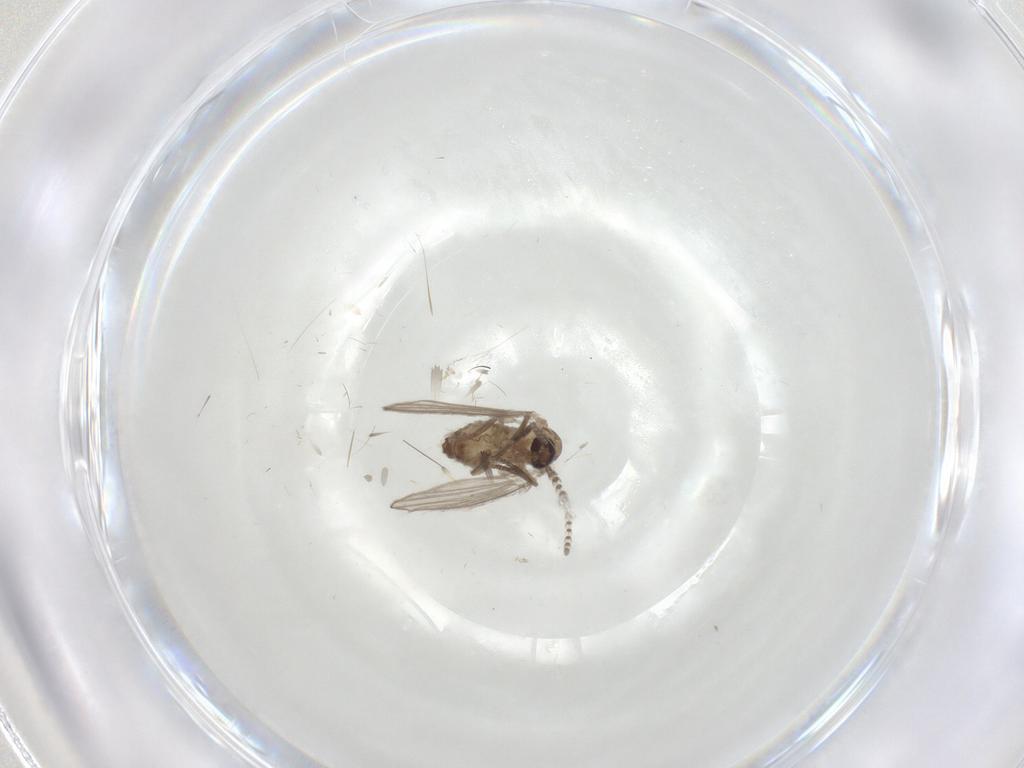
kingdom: Animalia
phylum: Arthropoda
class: Insecta
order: Diptera
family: Psychodidae
